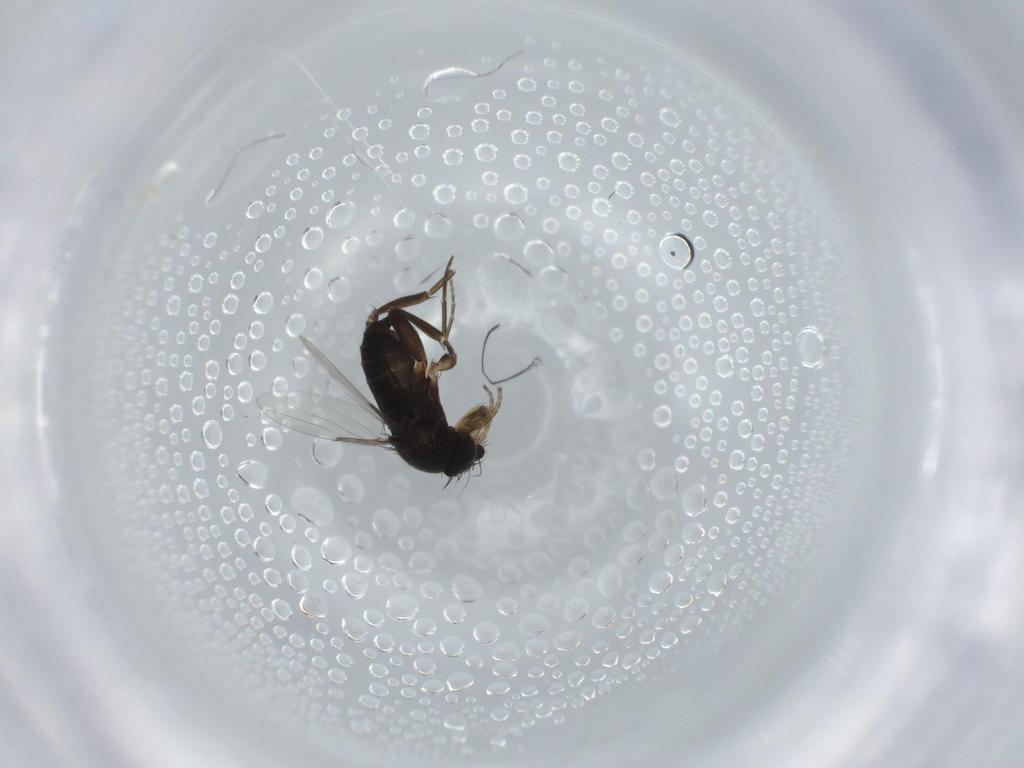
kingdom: Animalia
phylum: Arthropoda
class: Insecta
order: Diptera
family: Phoridae
